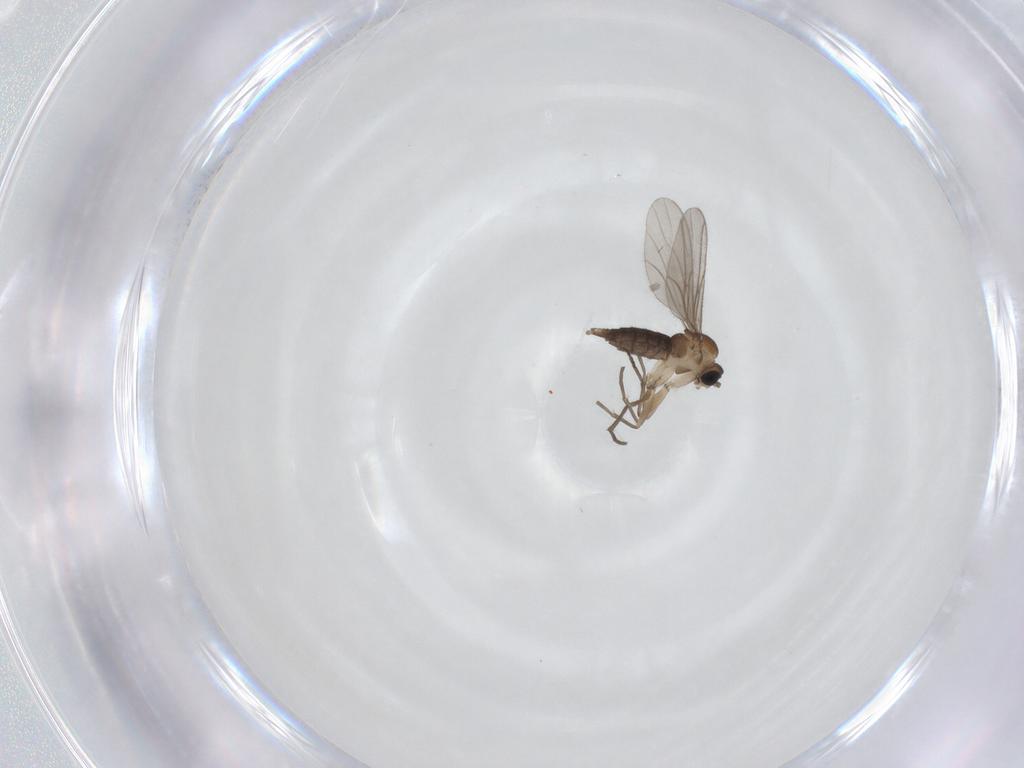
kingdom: Animalia
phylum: Arthropoda
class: Insecta
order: Diptera
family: Sciaridae
